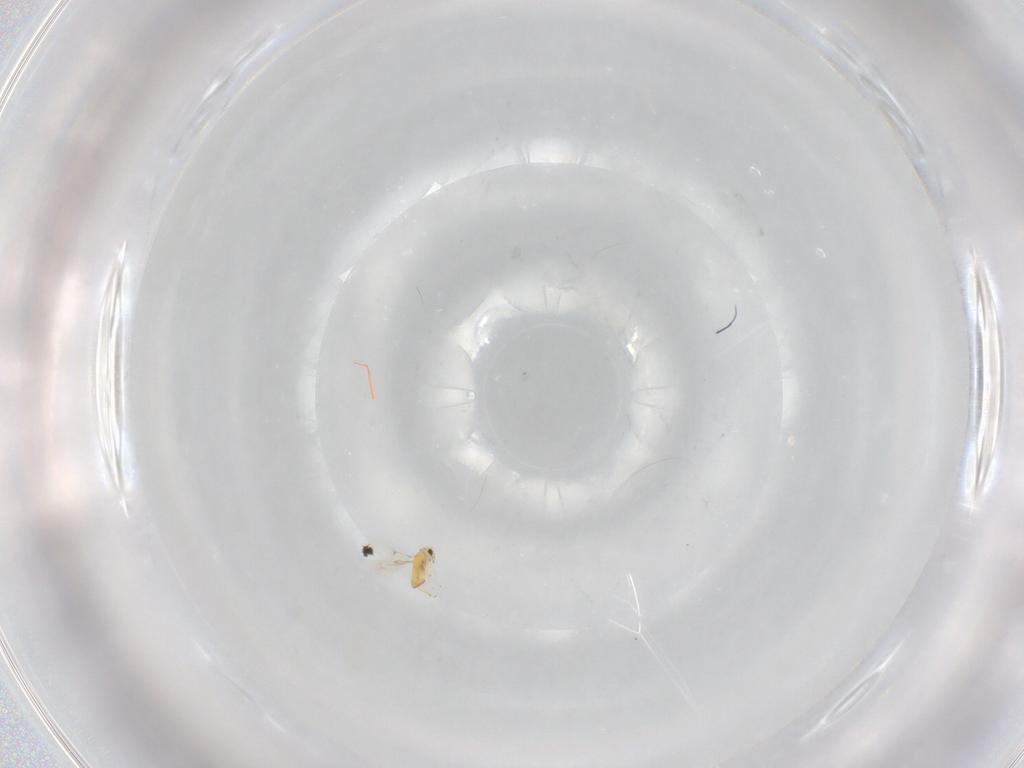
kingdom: Animalia
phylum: Arthropoda
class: Insecta
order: Hymenoptera
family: Trichogrammatidae
